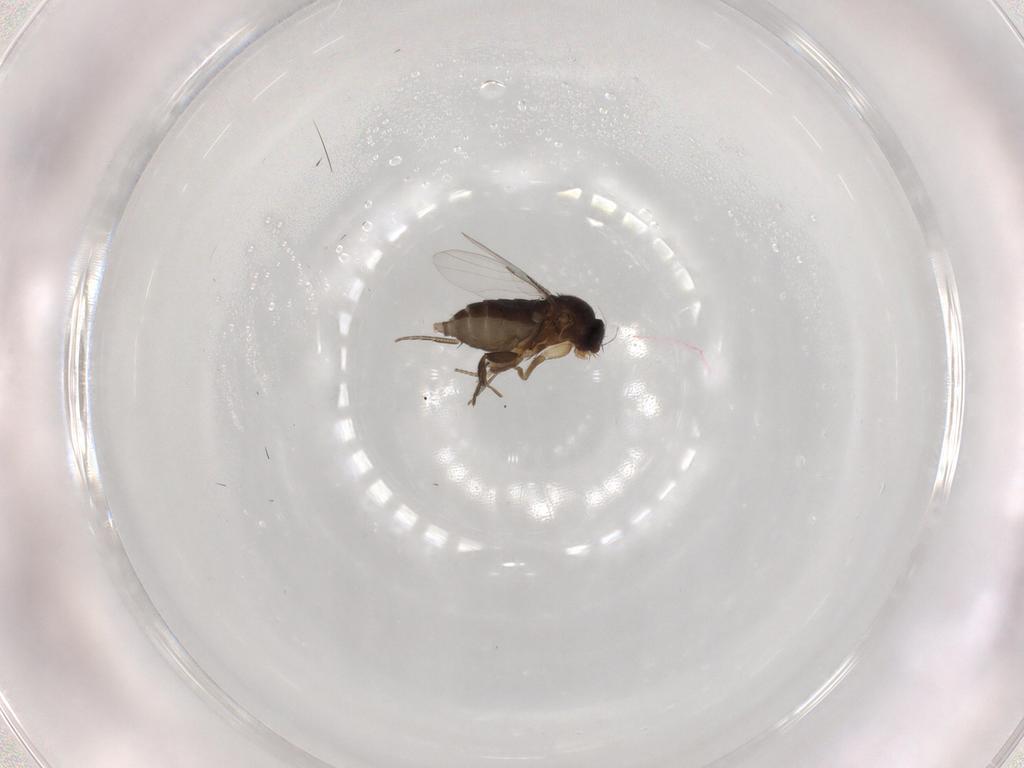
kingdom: Animalia
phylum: Arthropoda
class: Insecta
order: Diptera
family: Phoridae
